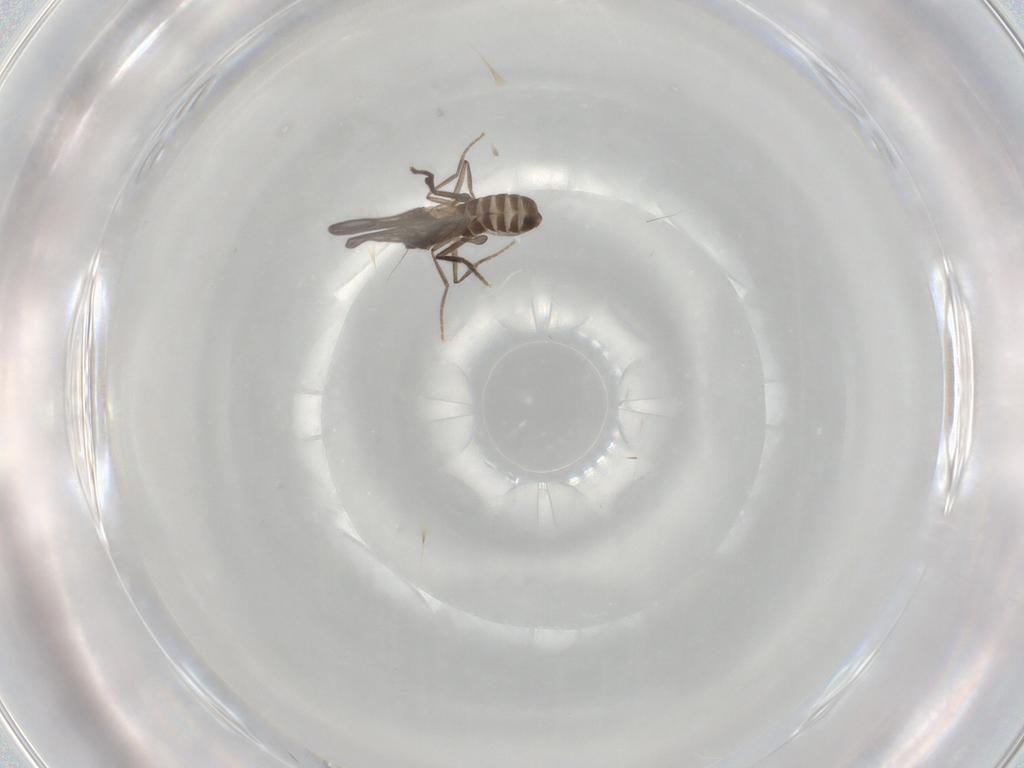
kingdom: Animalia
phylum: Arthropoda
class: Insecta
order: Diptera
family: Phoridae
